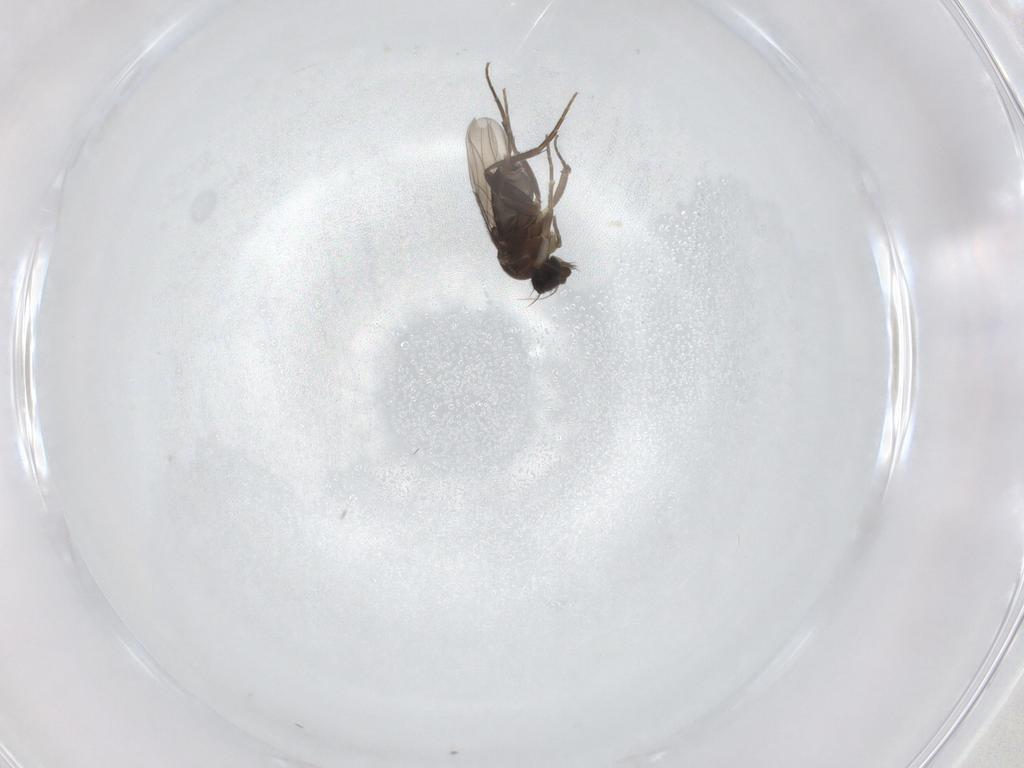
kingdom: Animalia
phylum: Arthropoda
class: Insecta
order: Diptera
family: Phoridae
